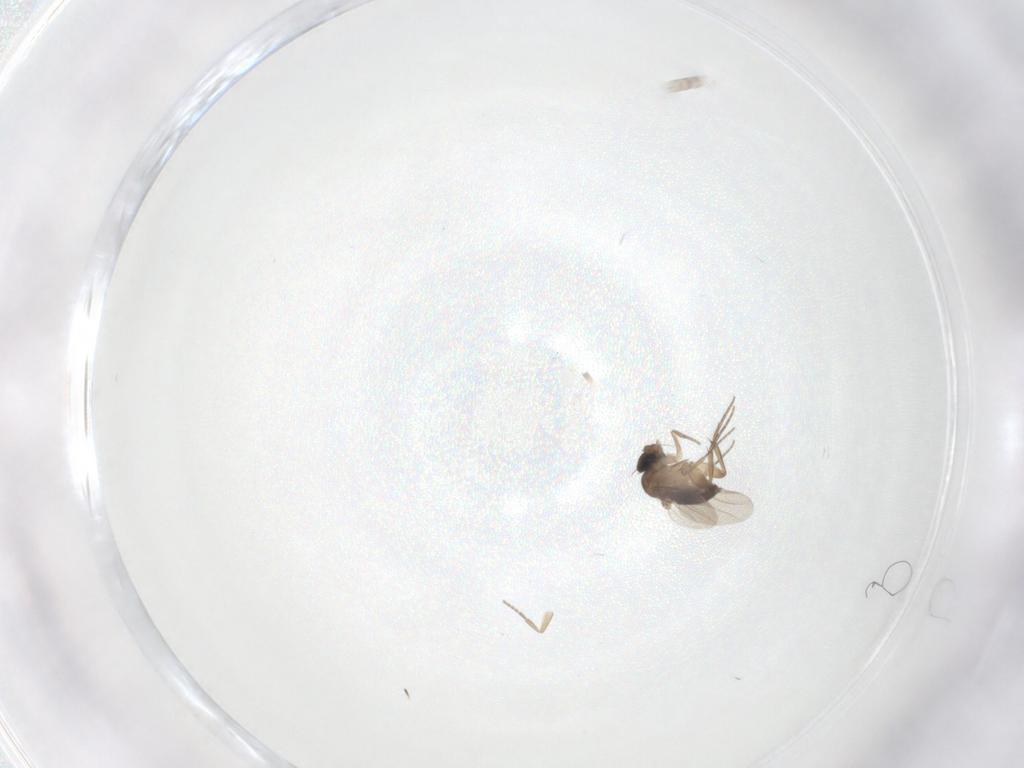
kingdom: Animalia
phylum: Arthropoda
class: Insecta
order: Diptera
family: Phoridae
